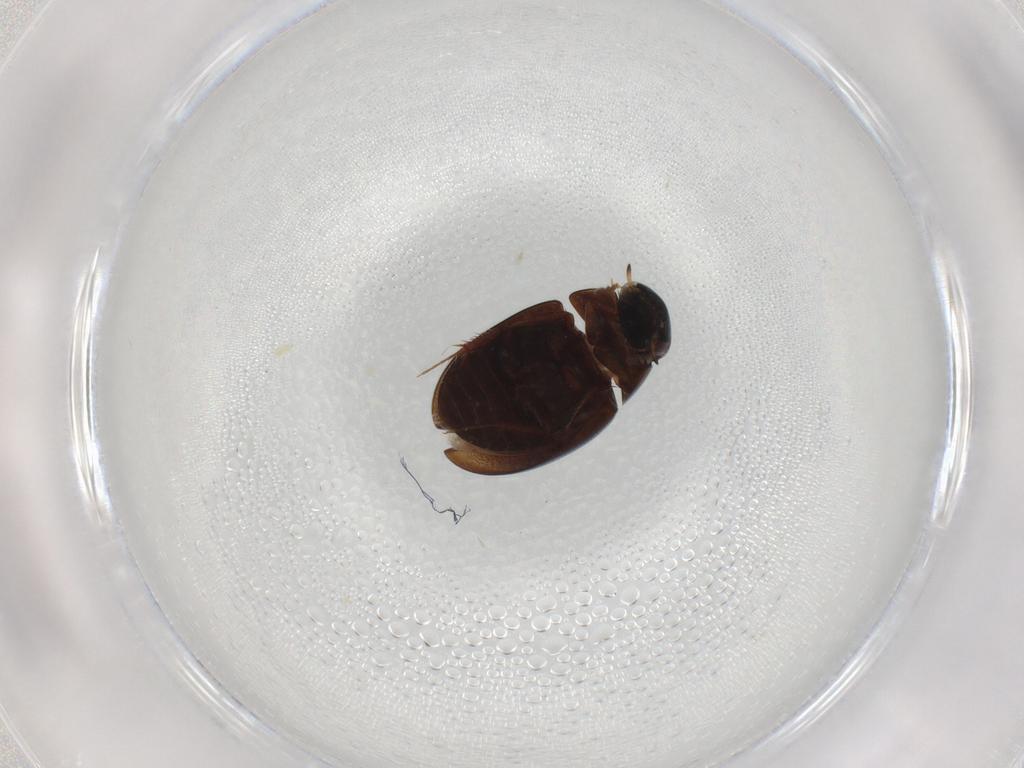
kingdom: Animalia
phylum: Arthropoda
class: Insecta
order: Coleoptera
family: Hydrophilidae
